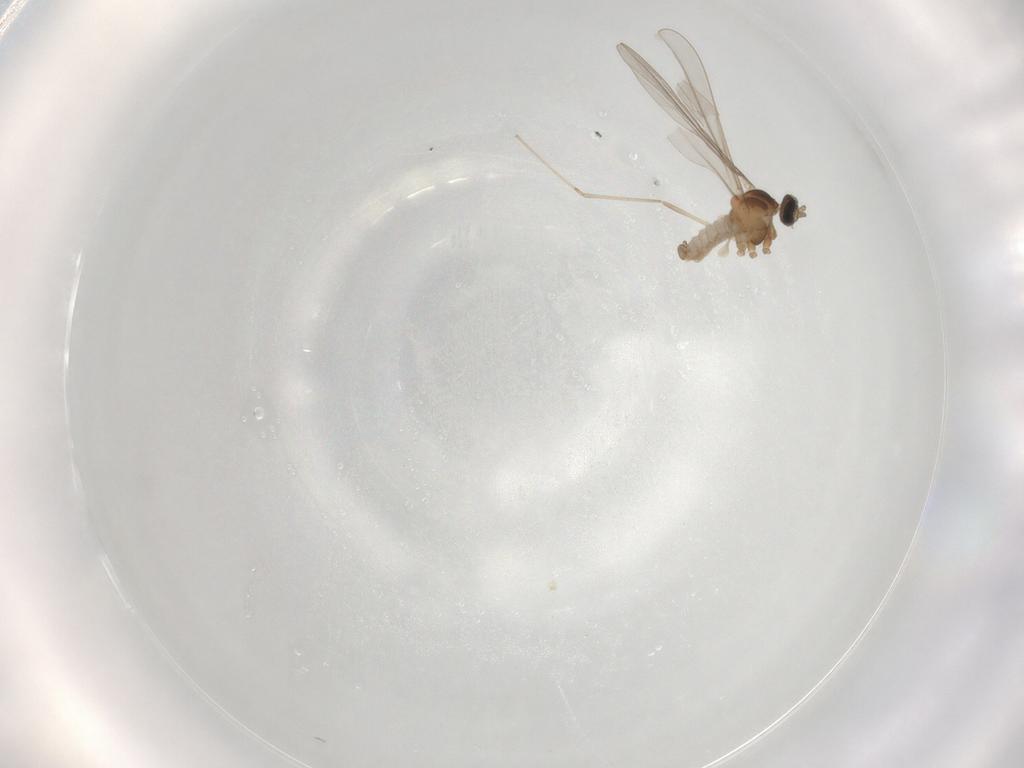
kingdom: Animalia
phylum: Arthropoda
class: Insecta
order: Diptera
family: Cecidomyiidae
